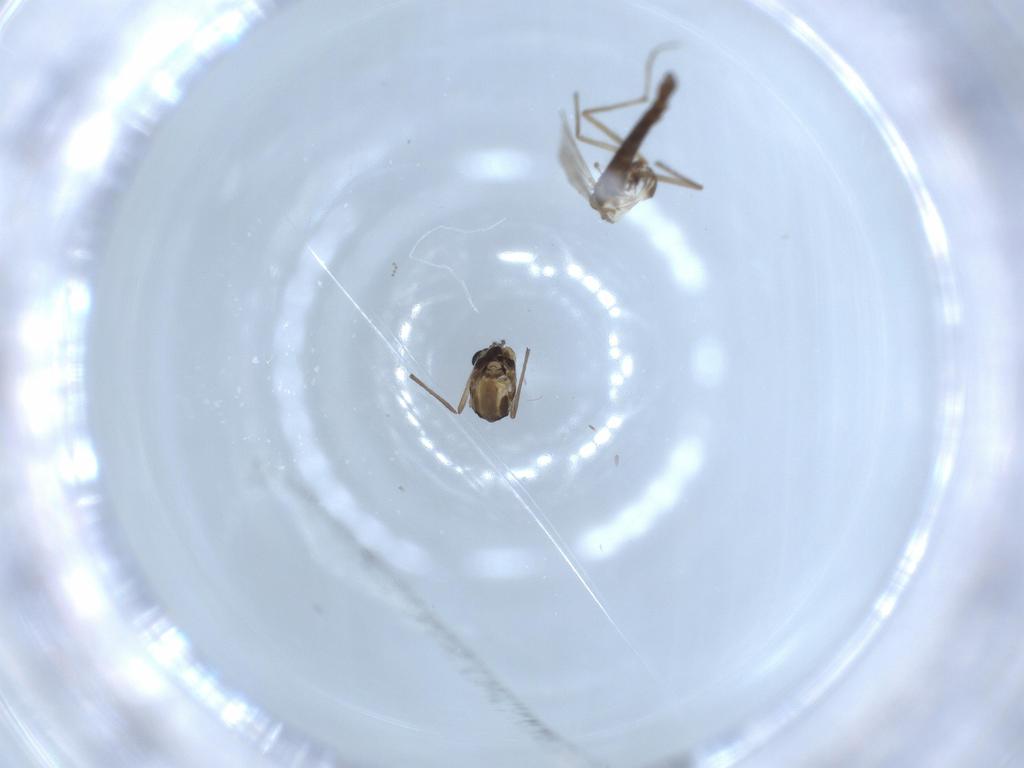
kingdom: Animalia
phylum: Arthropoda
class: Insecta
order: Diptera
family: Chironomidae
